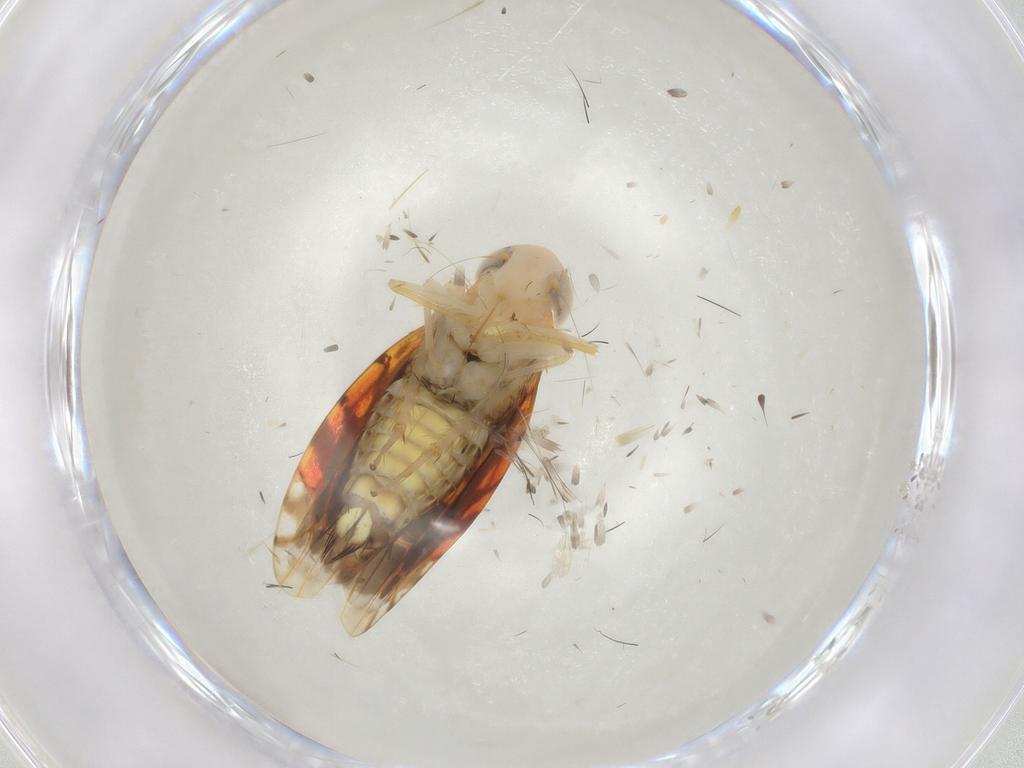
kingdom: Animalia
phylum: Arthropoda
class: Insecta
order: Hemiptera
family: Cicadellidae
